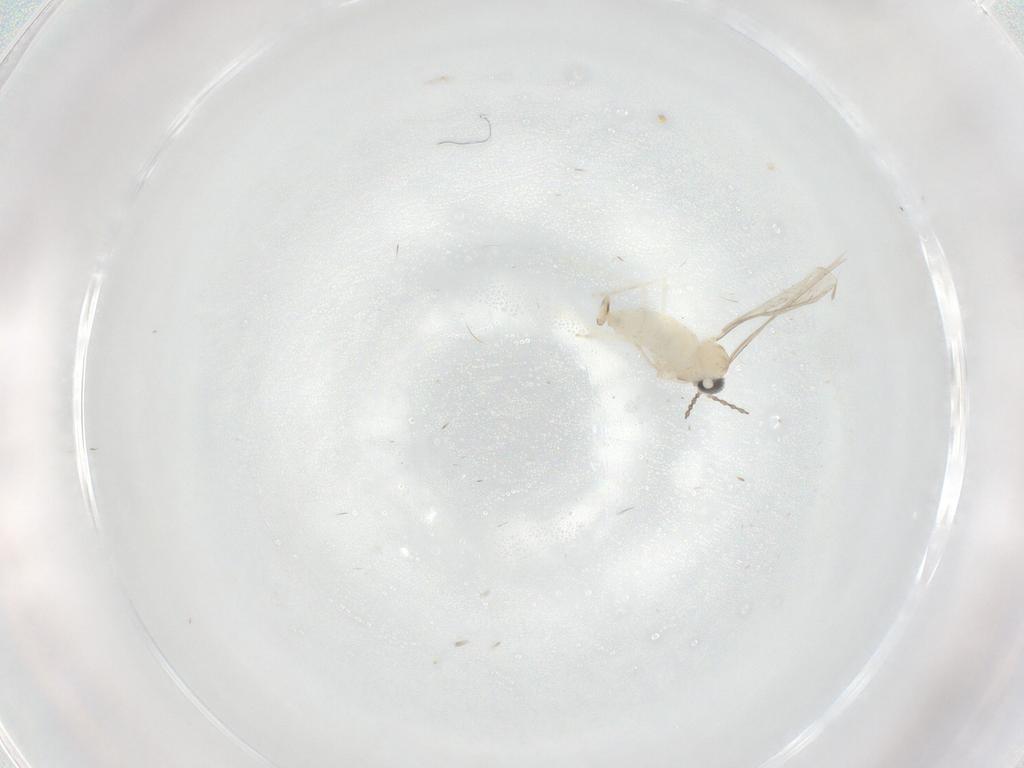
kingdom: Animalia
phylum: Arthropoda
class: Insecta
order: Diptera
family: Cecidomyiidae
